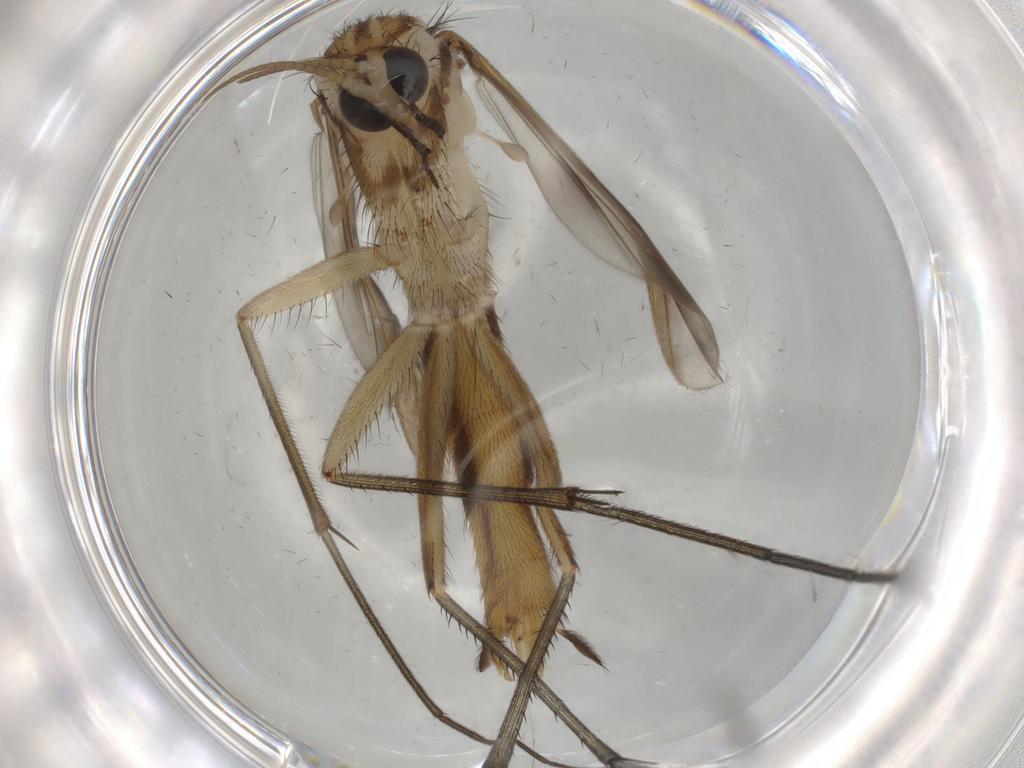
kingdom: Animalia
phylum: Arthropoda
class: Insecta
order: Diptera
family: Mycetophilidae
